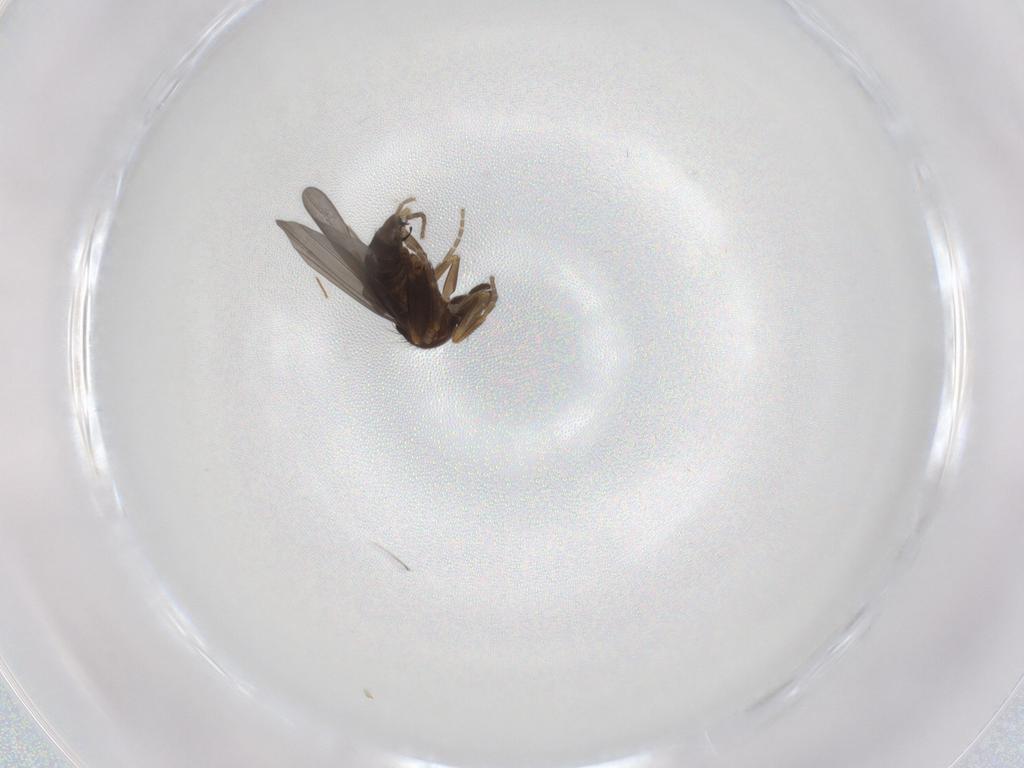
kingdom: Animalia
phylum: Arthropoda
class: Insecta
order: Diptera
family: Phoridae
